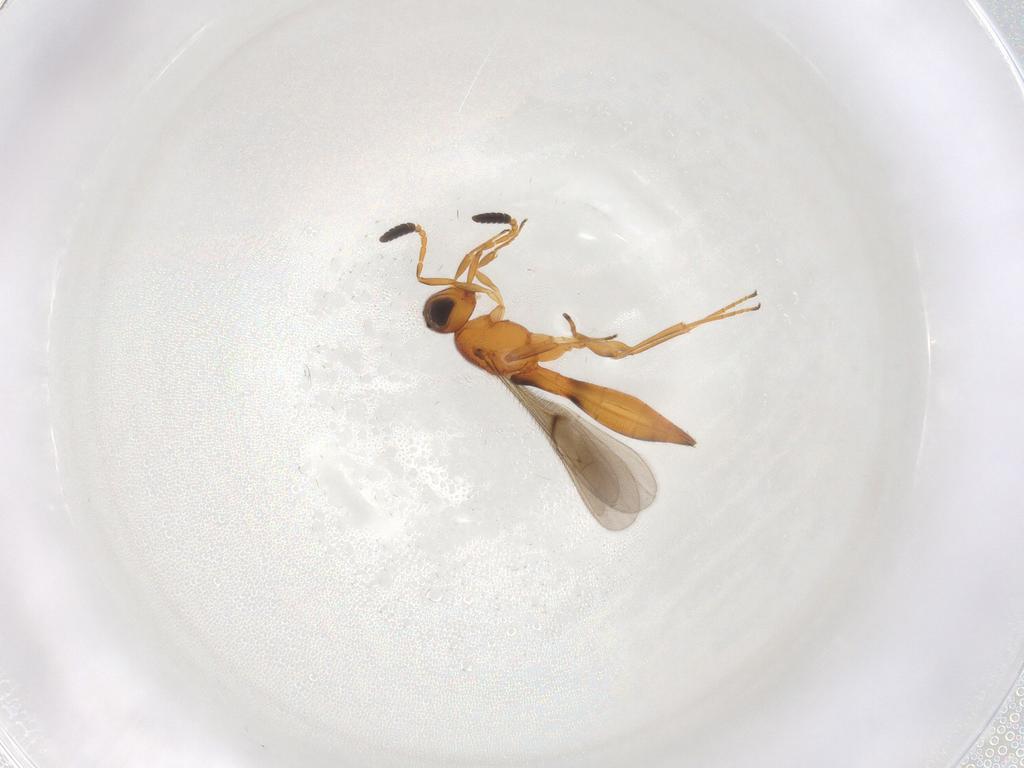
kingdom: Animalia
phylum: Arthropoda
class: Insecta
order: Hymenoptera
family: Scelionidae
